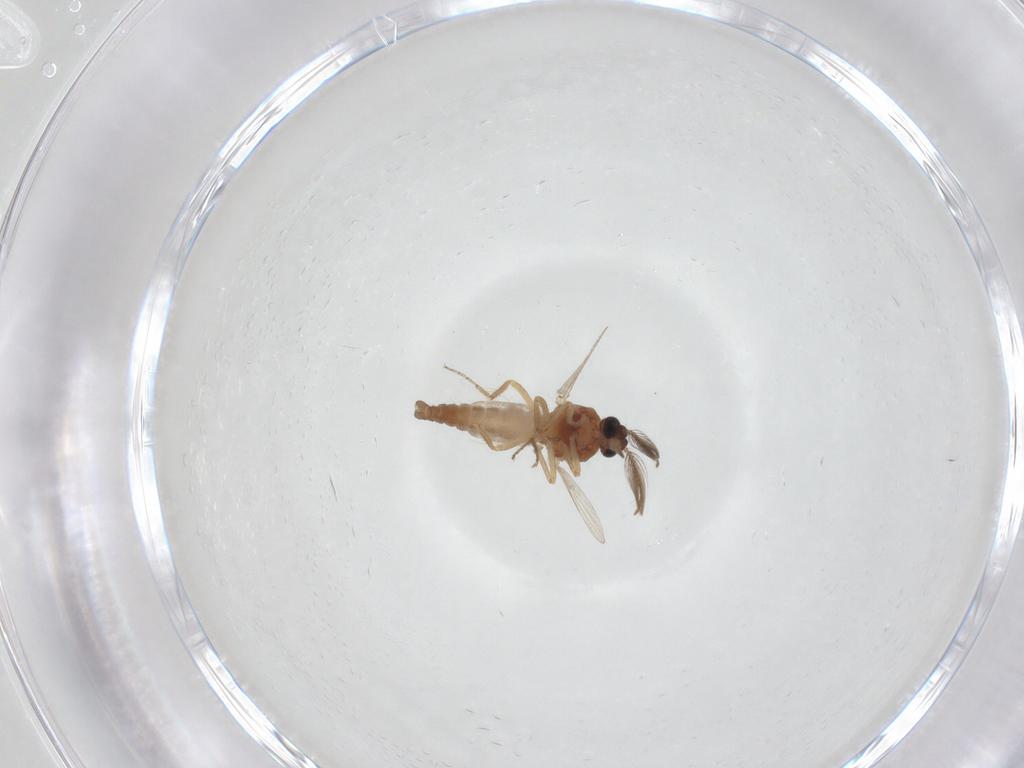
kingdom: Animalia
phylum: Arthropoda
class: Insecta
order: Diptera
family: Ceratopogonidae
